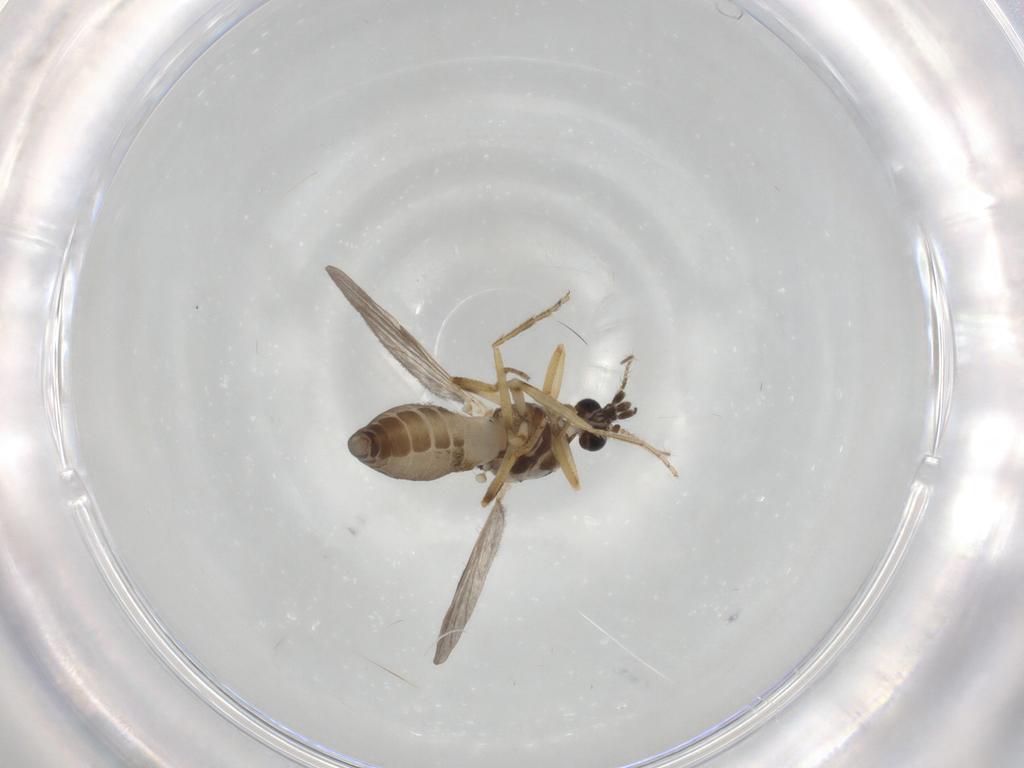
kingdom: Animalia
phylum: Arthropoda
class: Insecta
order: Diptera
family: Ceratopogonidae
